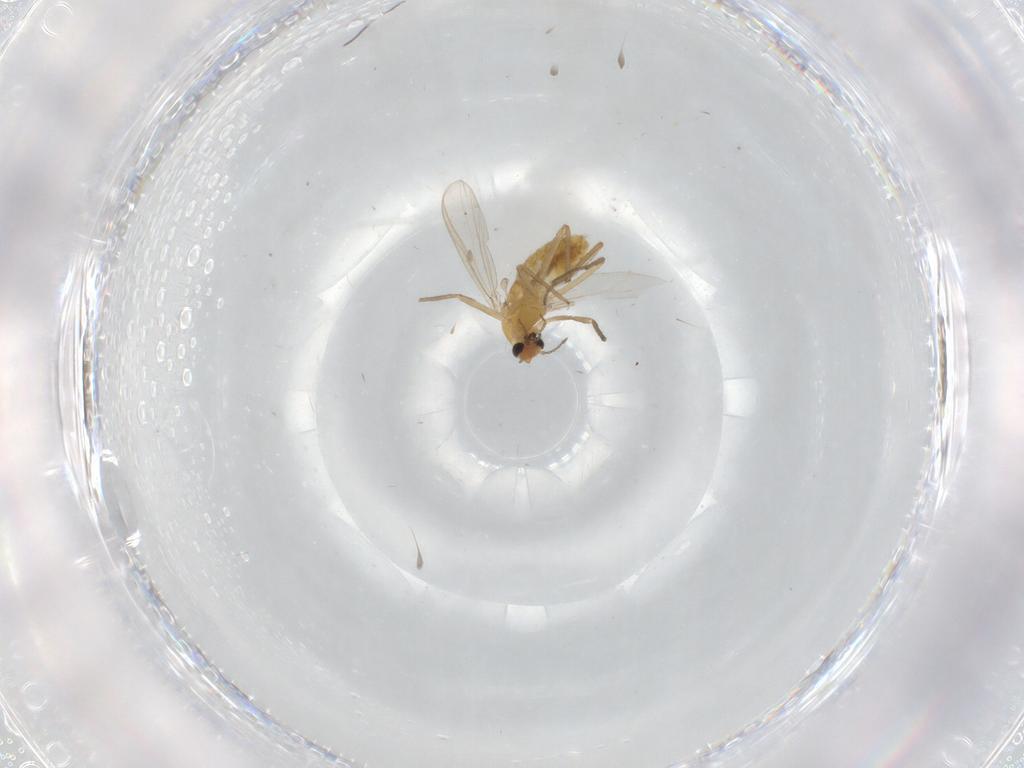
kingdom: Animalia
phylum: Arthropoda
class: Insecta
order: Diptera
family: Chironomidae
